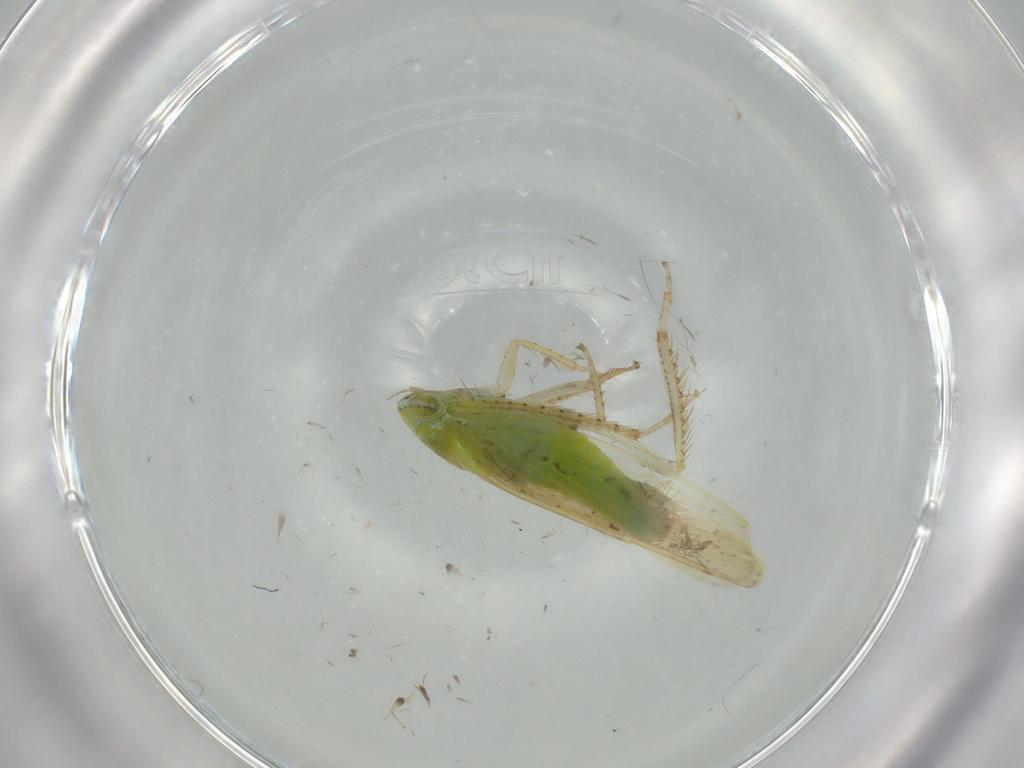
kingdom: Animalia
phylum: Arthropoda
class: Insecta
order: Hemiptera
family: Cicadellidae
